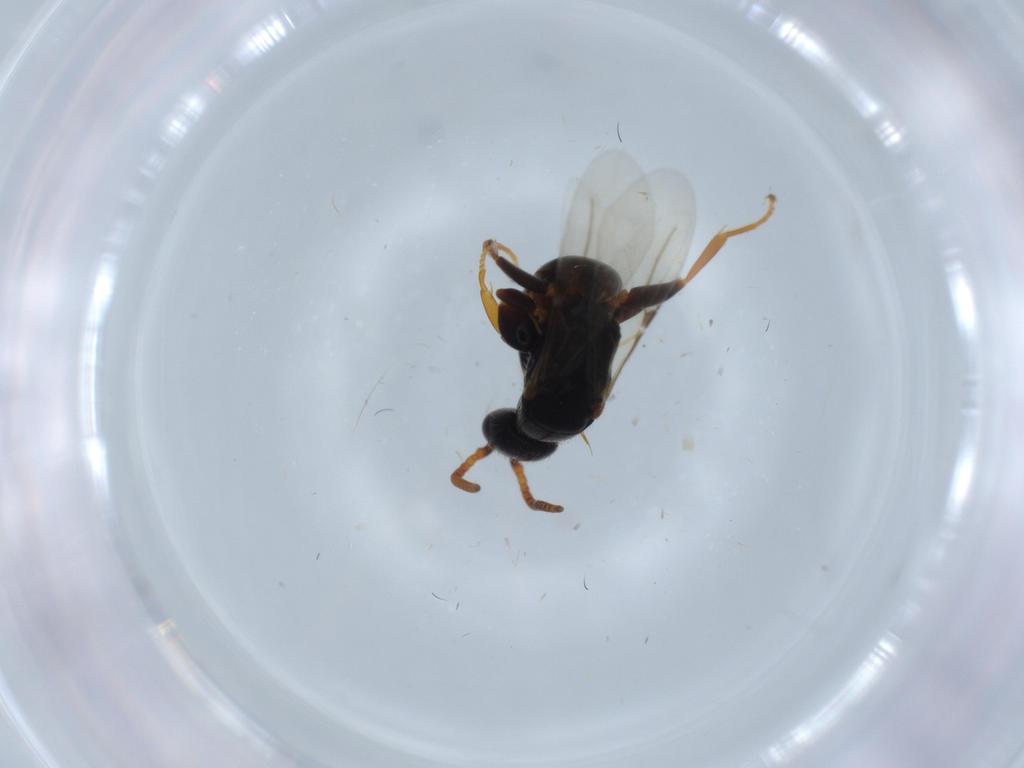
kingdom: Animalia
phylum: Arthropoda
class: Insecta
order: Hymenoptera
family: Bethylidae
